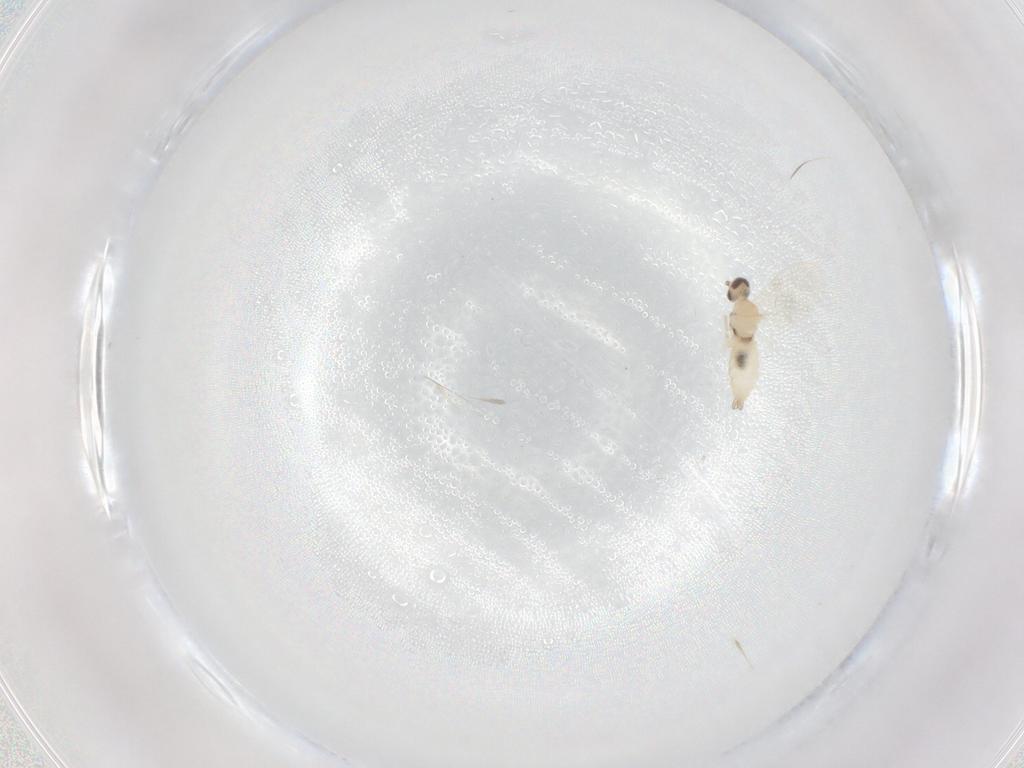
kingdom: Animalia
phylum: Arthropoda
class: Insecta
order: Diptera
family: Cecidomyiidae
